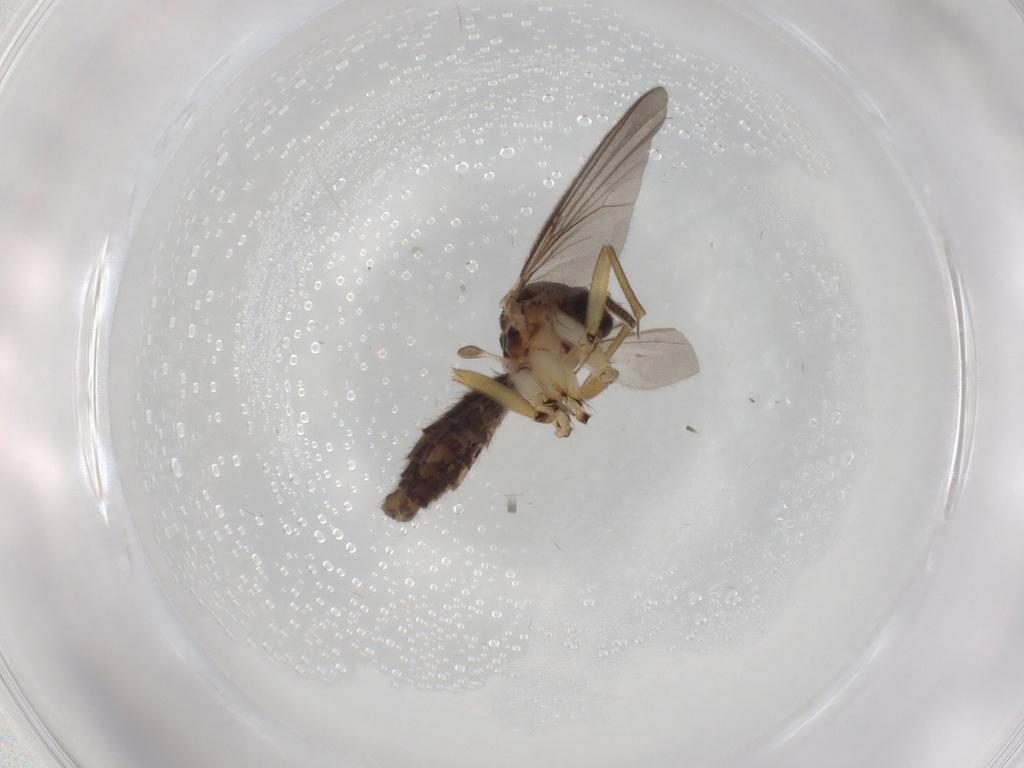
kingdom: Animalia
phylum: Arthropoda
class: Insecta
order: Diptera
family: Mycetophilidae
